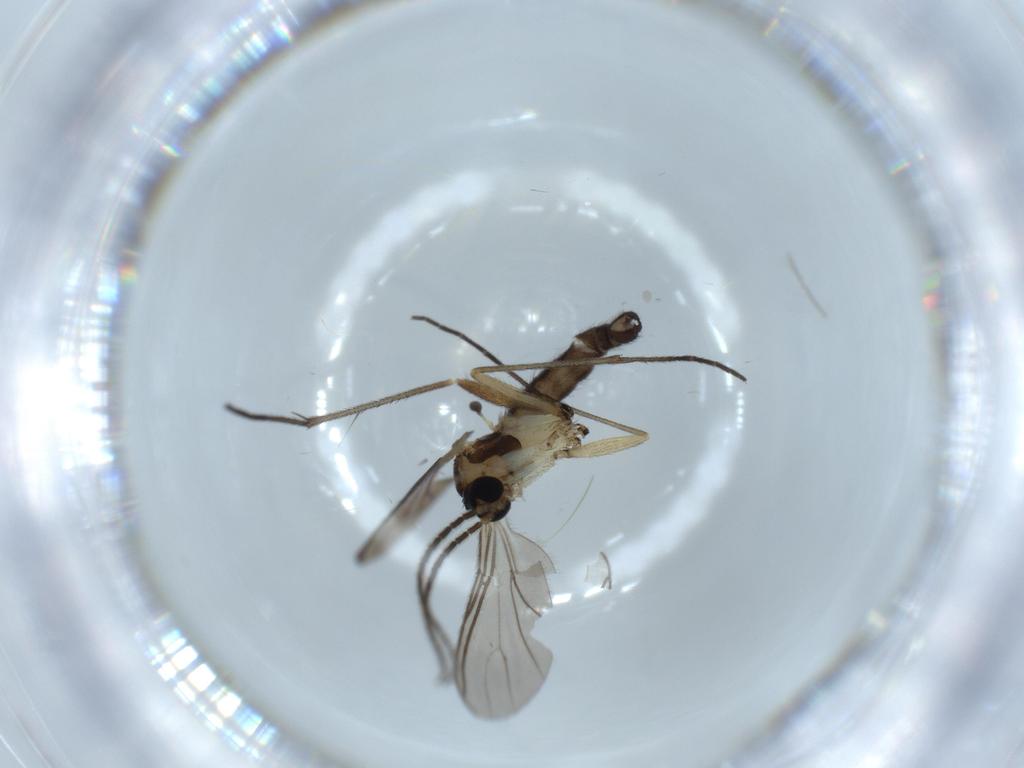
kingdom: Animalia
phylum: Arthropoda
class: Insecta
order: Diptera
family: Sciaridae
